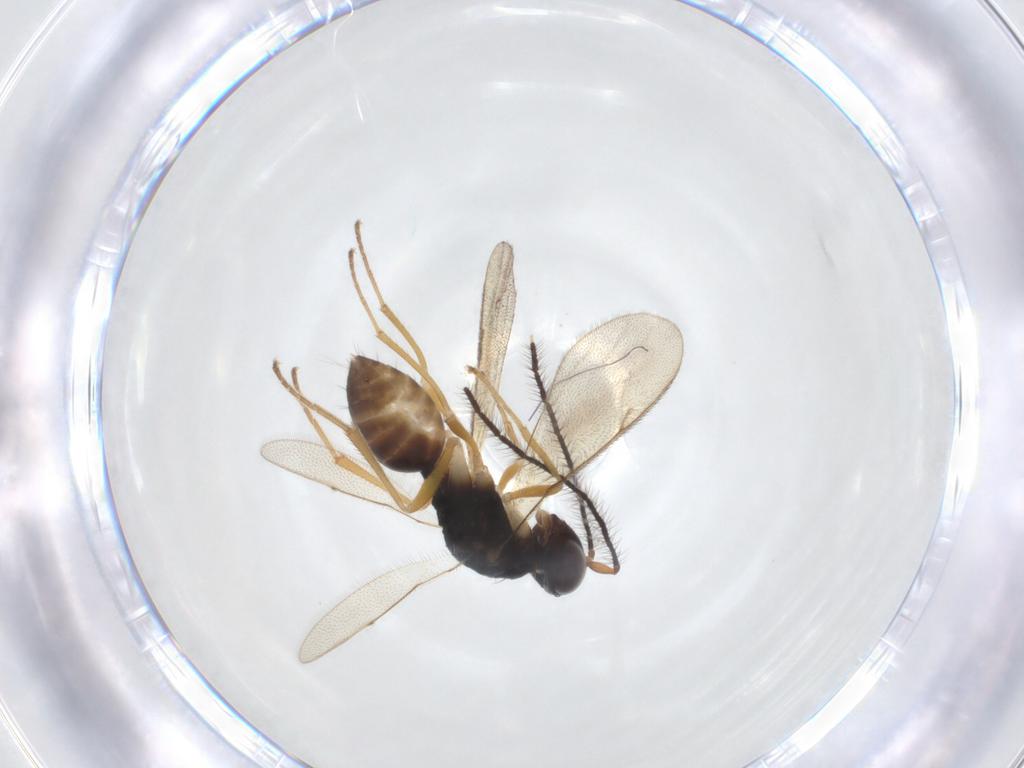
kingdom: Animalia
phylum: Arthropoda
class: Insecta
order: Hymenoptera
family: Diparidae
